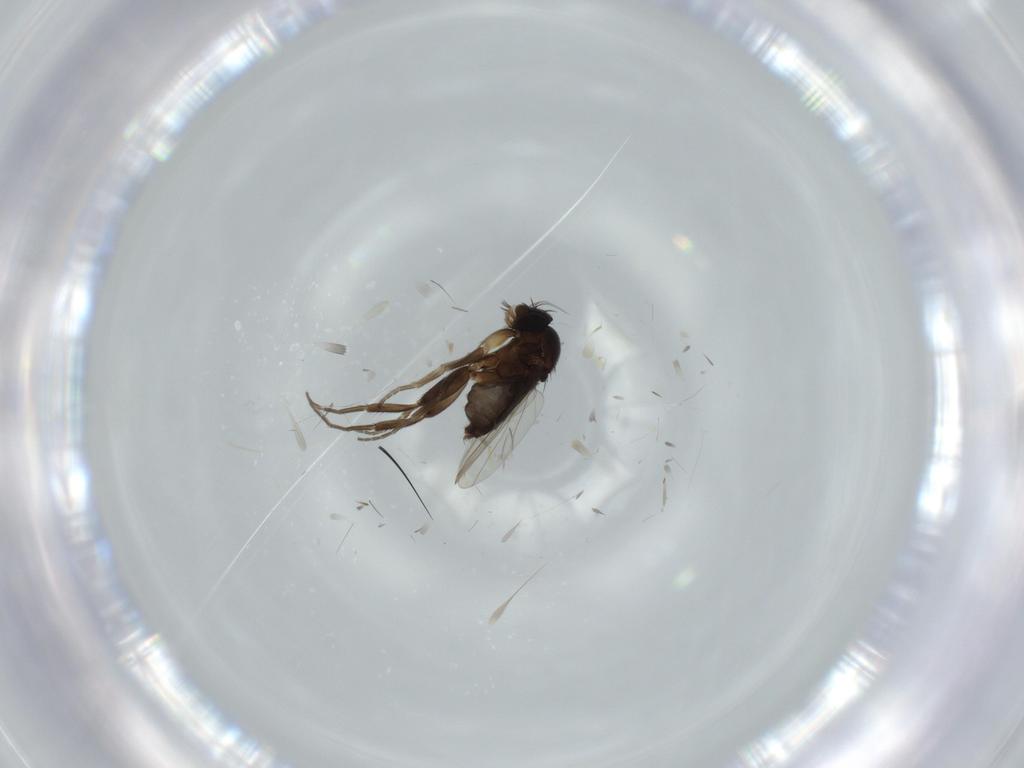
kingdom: Animalia
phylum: Arthropoda
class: Insecta
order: Diptera
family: Phoridae
